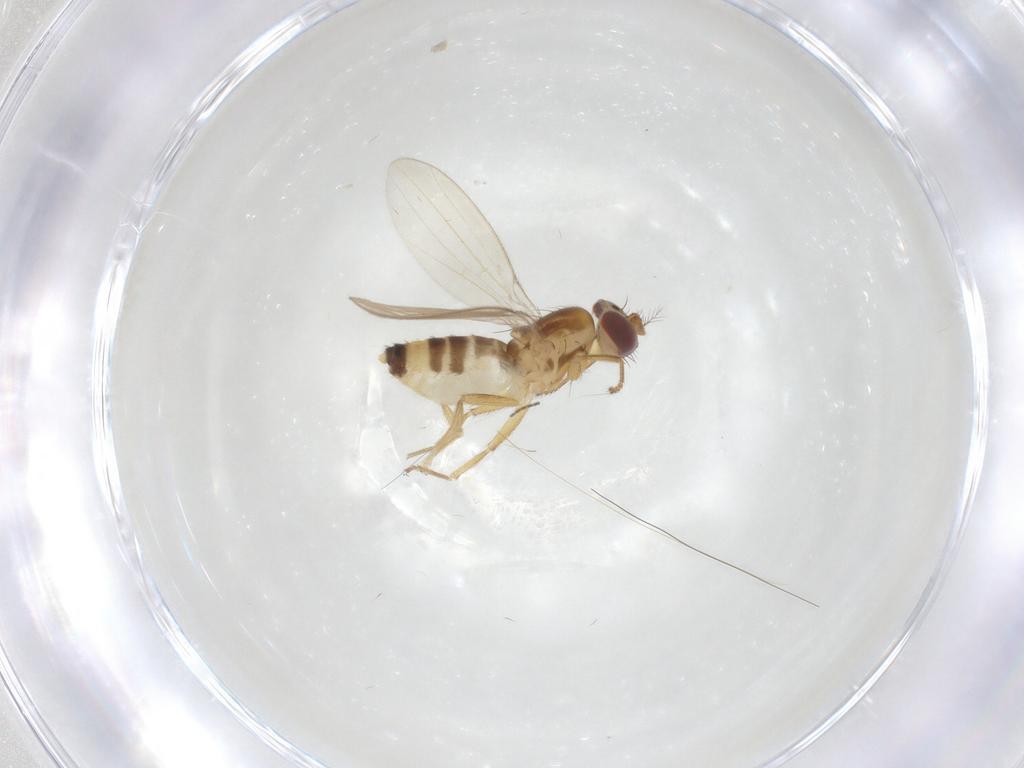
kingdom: Animalia
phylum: Arthropoda
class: Insecta
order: Diptera
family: Periscelididae
